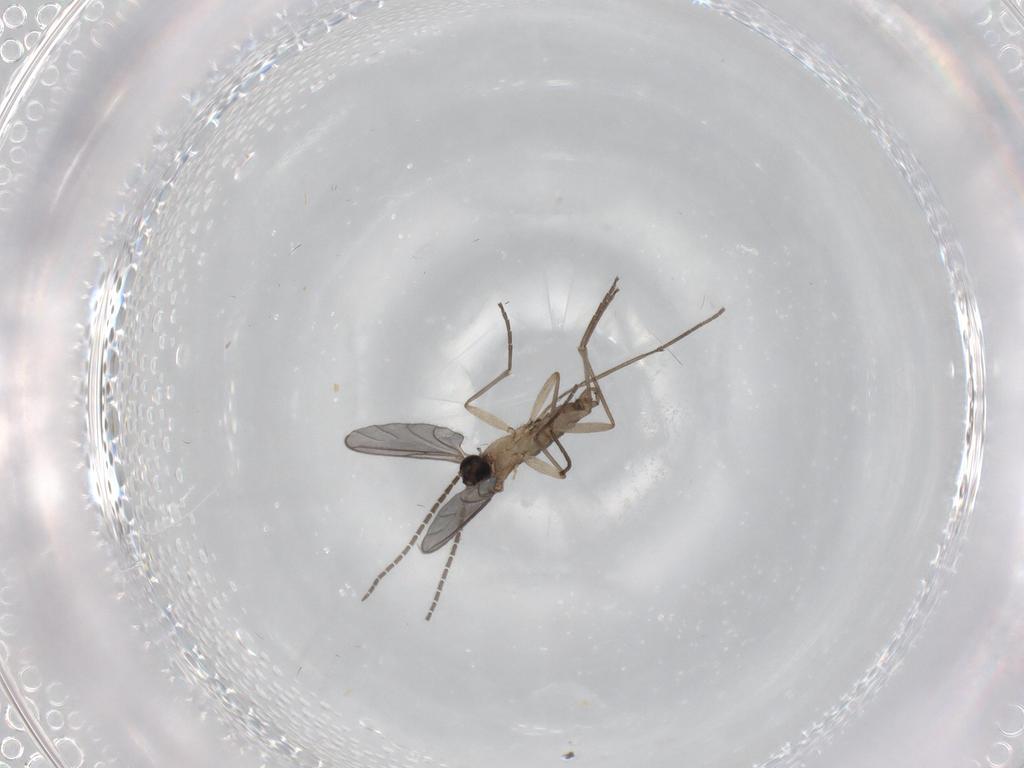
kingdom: Animalia
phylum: Arthropoda
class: Insecta
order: Diptera
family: Sciaridae
